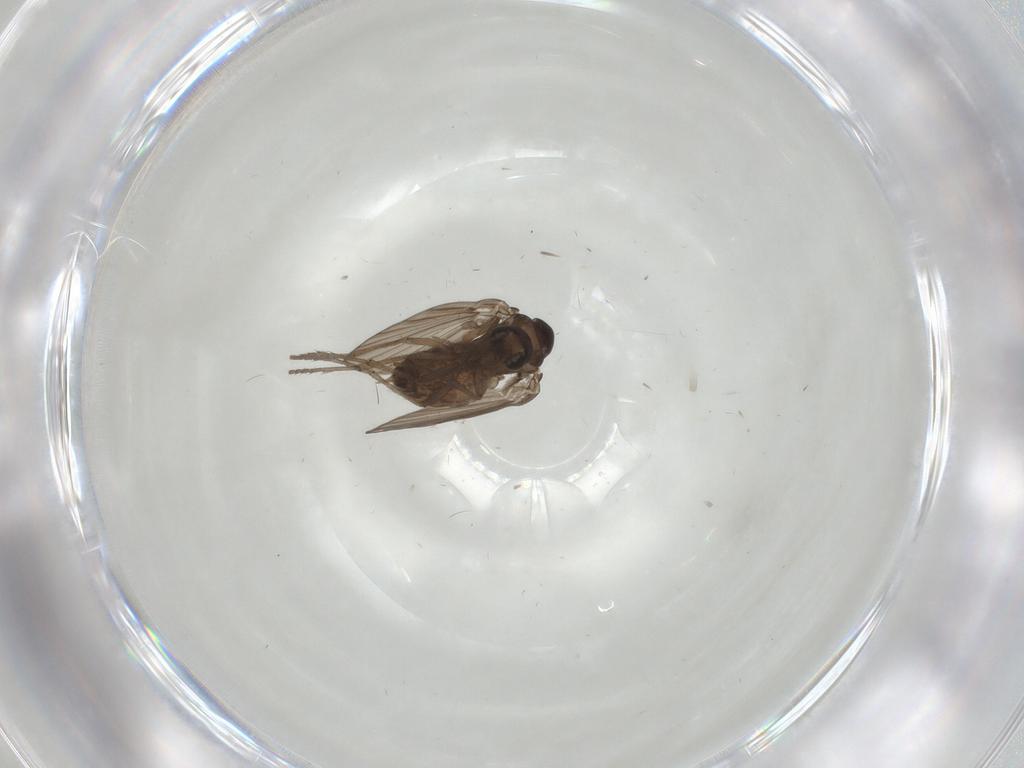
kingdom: Animalia
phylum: Arthropoda
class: Insecta
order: Diptera
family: Psychodidae
